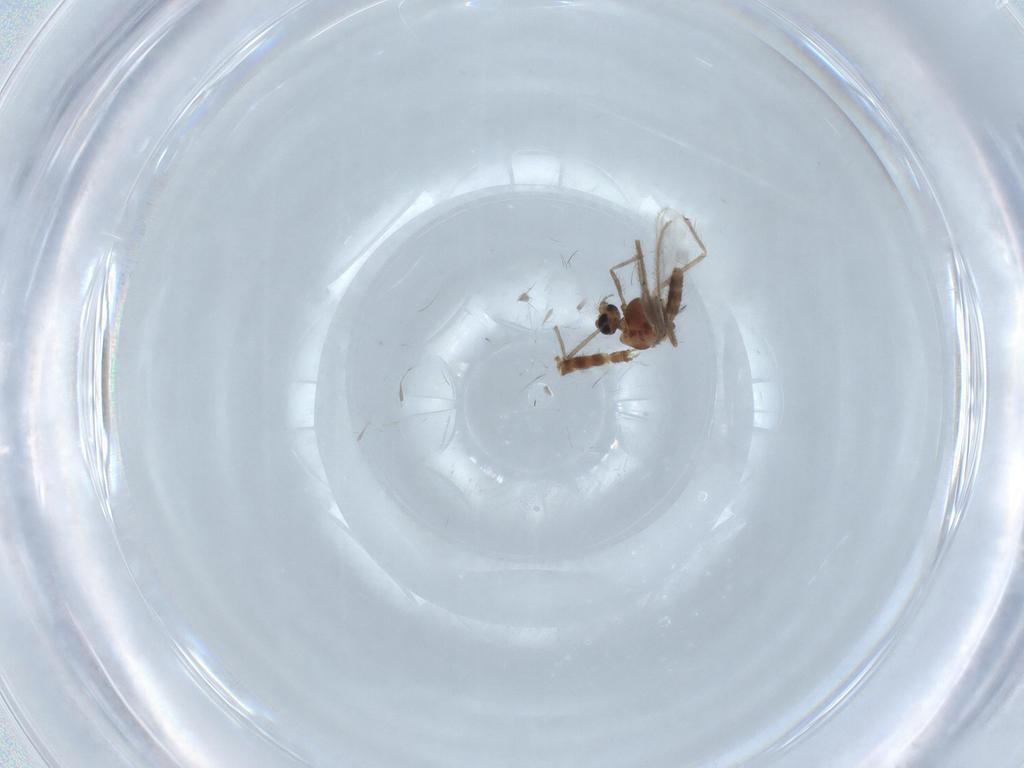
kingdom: Animalia
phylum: Arthropoda
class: Insecta
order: Diptera
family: Chironomidae
